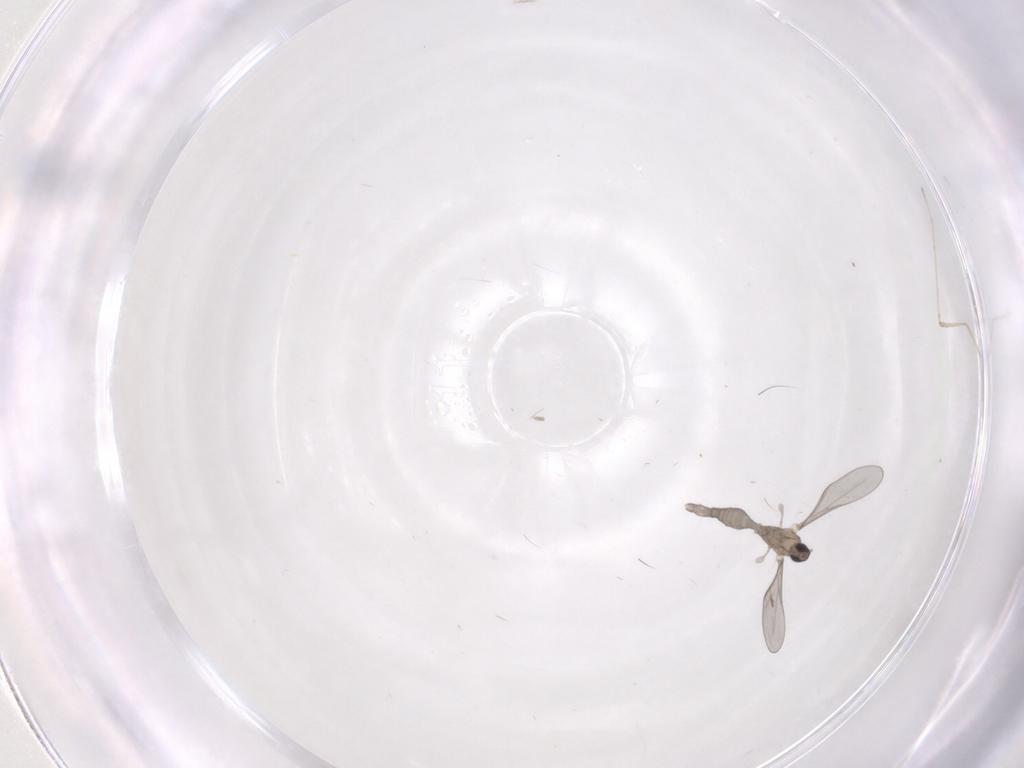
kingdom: Animalia
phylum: Arthropoda
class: Insecta
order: Diptera
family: Cecidomyiidae
